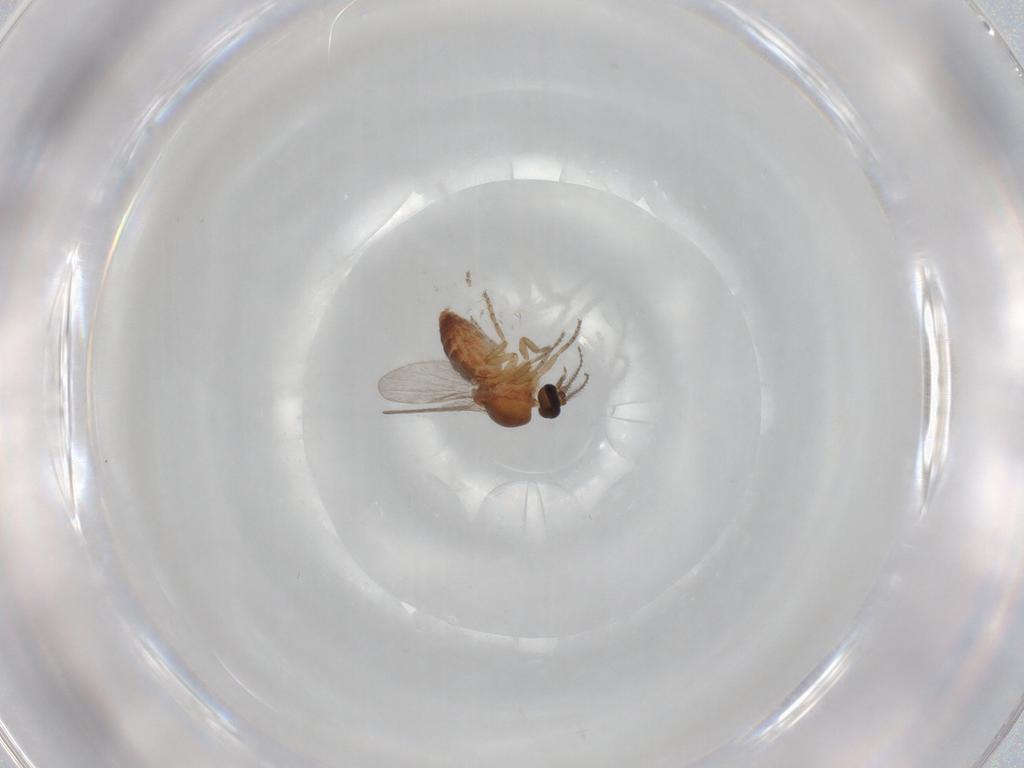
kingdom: Animalia
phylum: Arthropoda
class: Insecta
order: Diptera
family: Ceratopogonidae
